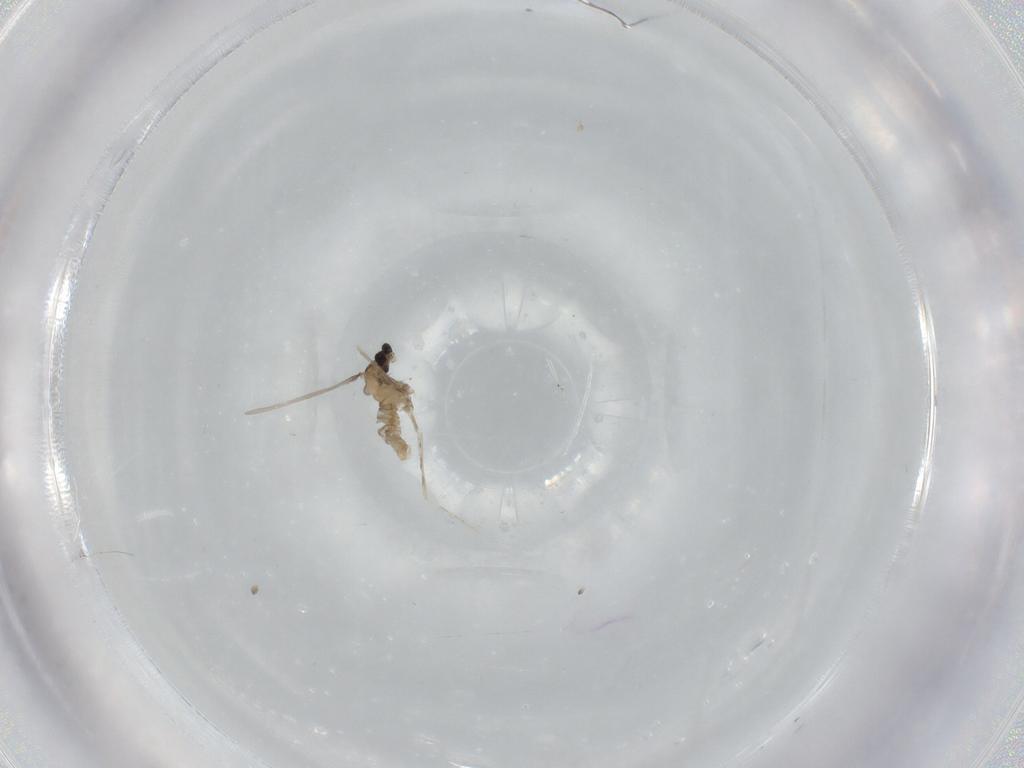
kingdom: Animalia
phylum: Arthropoda
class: Insecta
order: Diptera
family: Cecidomyiidae
